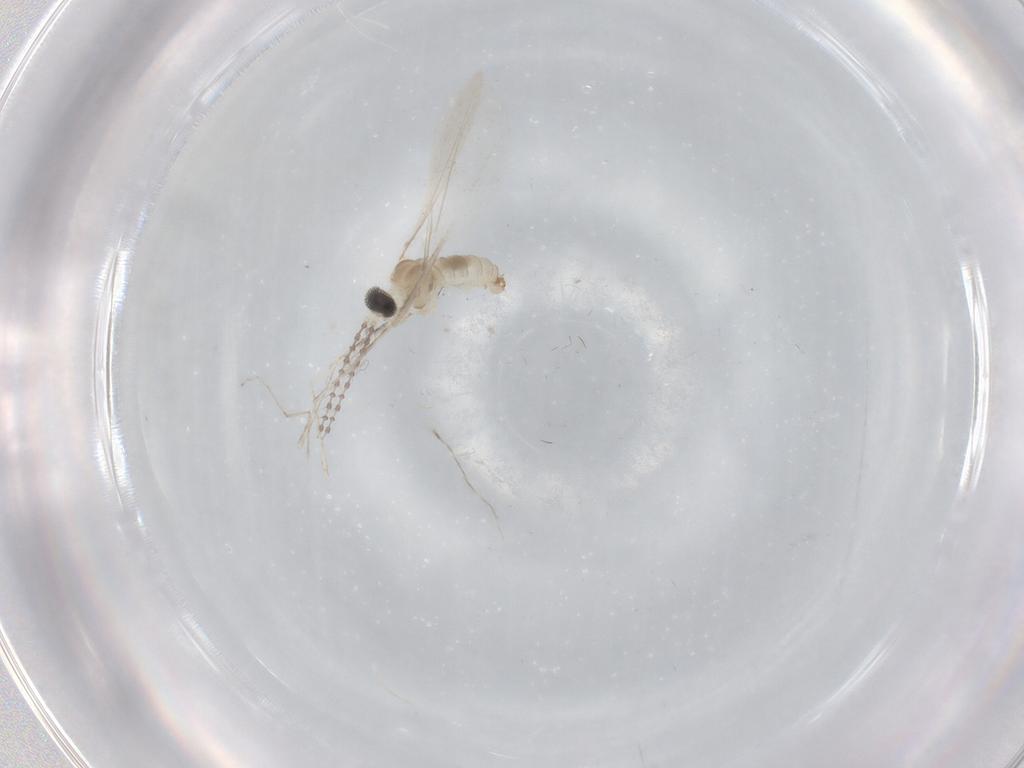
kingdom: Animalia
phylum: Arthropoda
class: Insecta
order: Diptera
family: Cecidomyiidae
